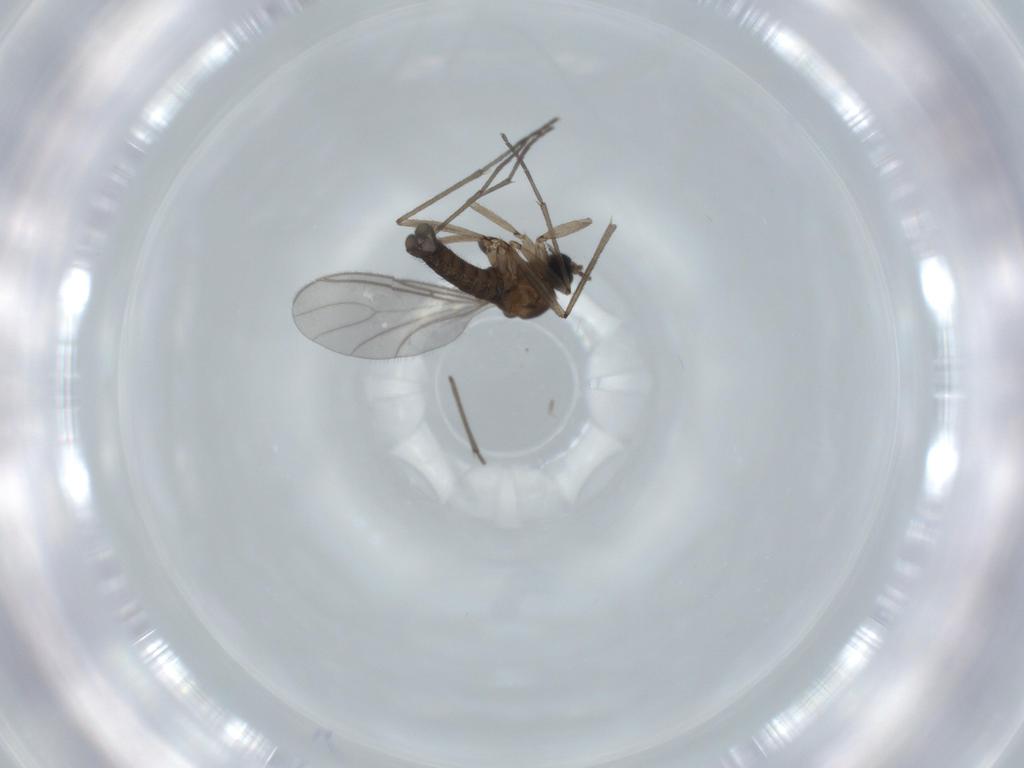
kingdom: Animalia
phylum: Arthropoda
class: Insecta
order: Diptera
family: Sciaridae
